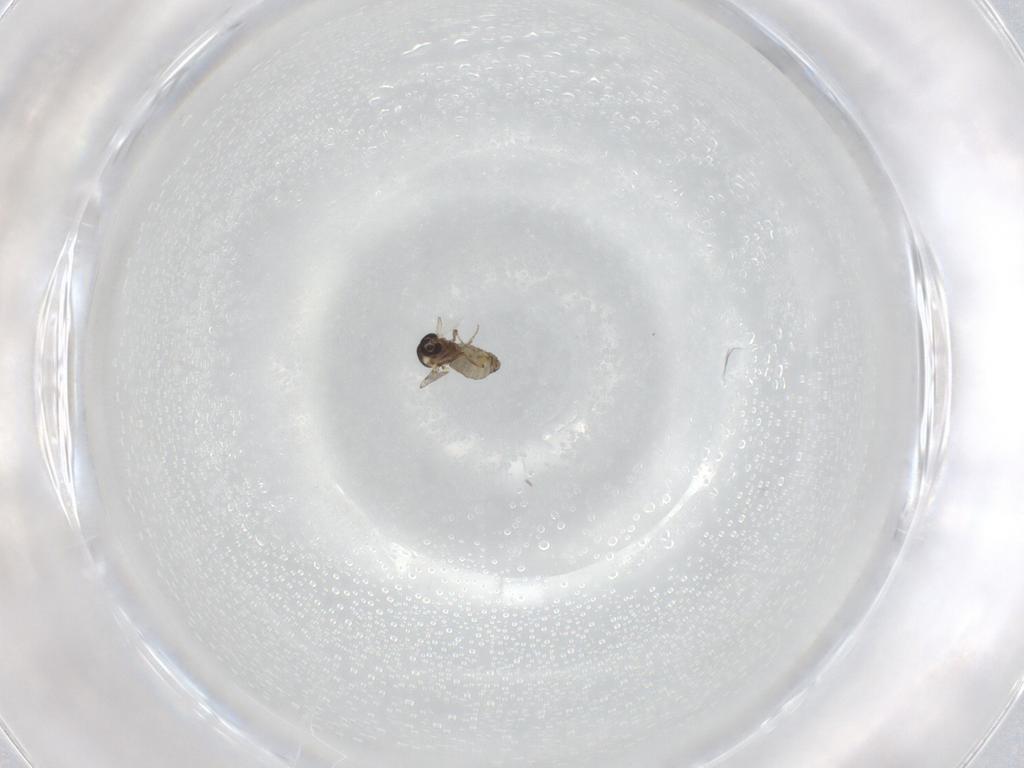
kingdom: Animalia
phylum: Arthropoda
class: Insecta
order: Diptera
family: Ceratopogonidae
